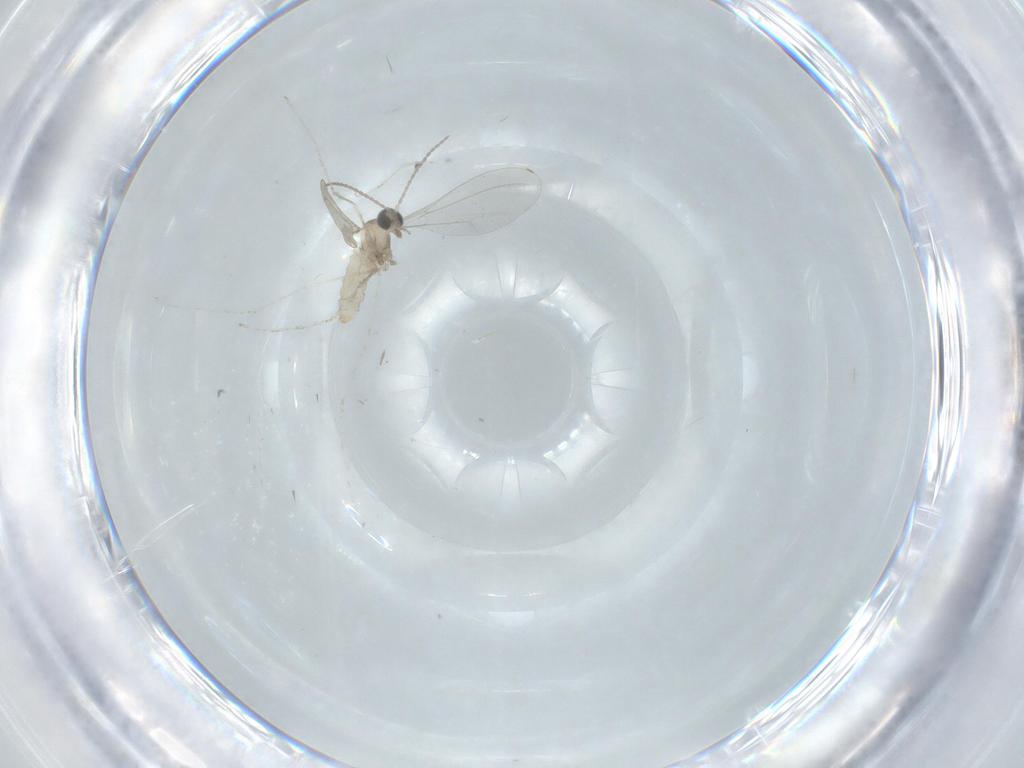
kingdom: Animalia
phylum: Arthropoda
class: Insecta
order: Diptera
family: Cecidomyiidae
